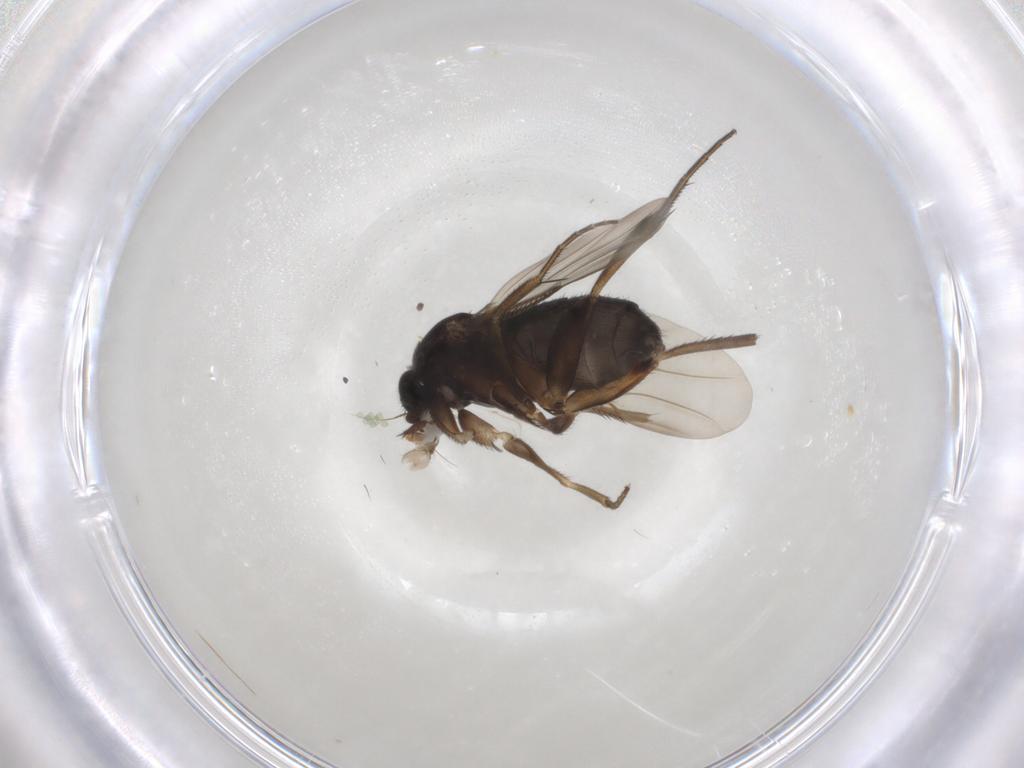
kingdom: Animalia
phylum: Arthropoda
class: Insecta
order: Diptera
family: Phoridae
